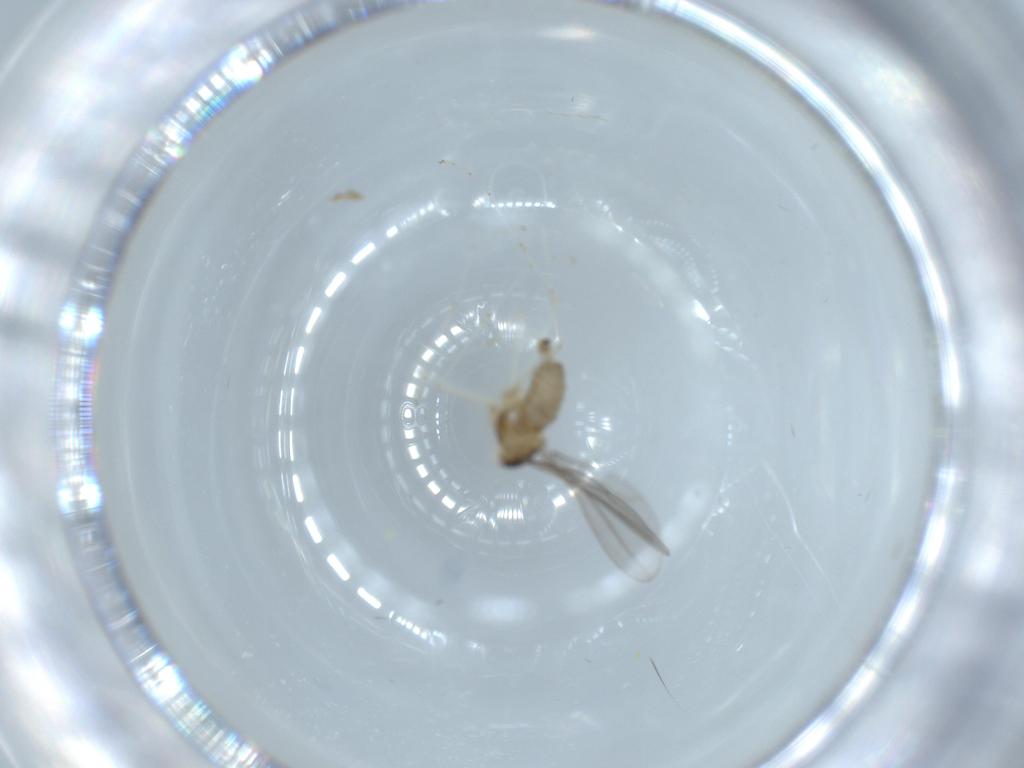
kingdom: Animalia
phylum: Arthropoda
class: Insecta
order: Diptera
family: Cecidomyiidae
